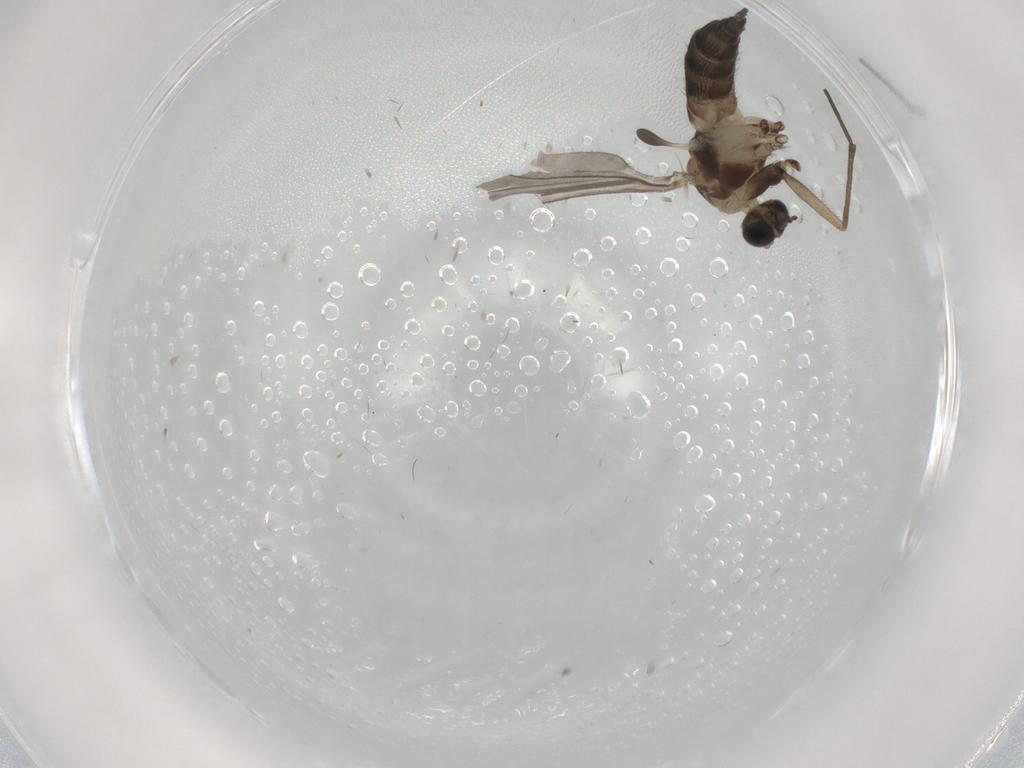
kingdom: Animalia
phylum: Arthropoda
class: Insecta
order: Diptera
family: Sciaridae
